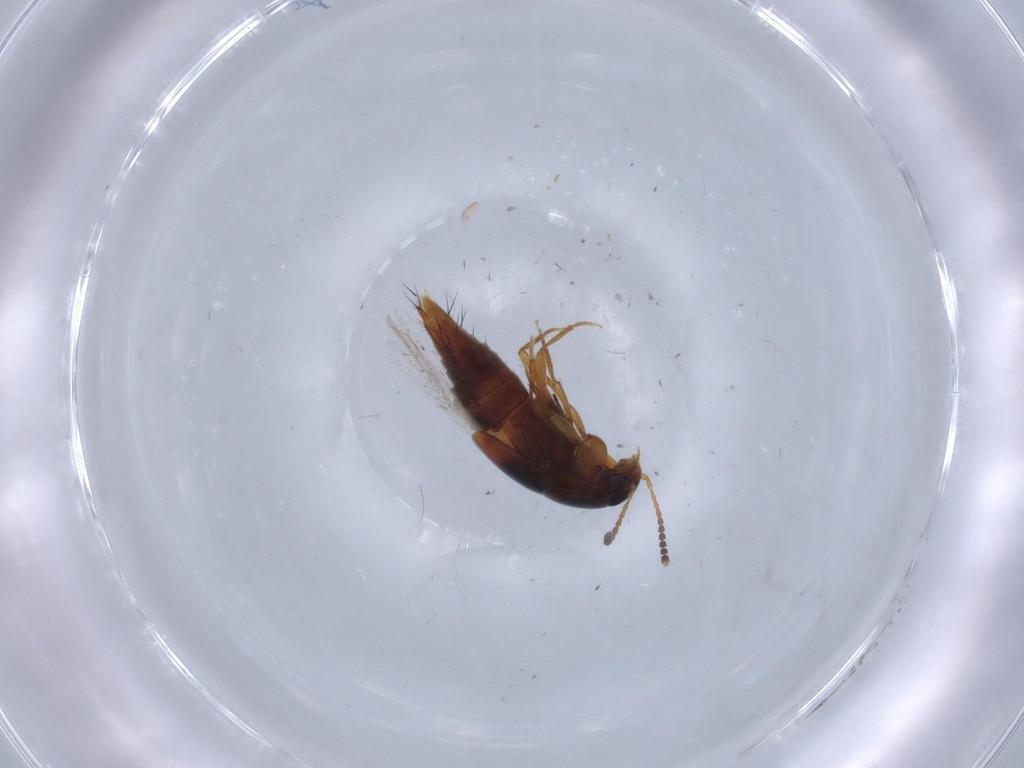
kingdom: Animalia
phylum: Arthropoda
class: Insecta
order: Coleoptera
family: Staphylinidae
